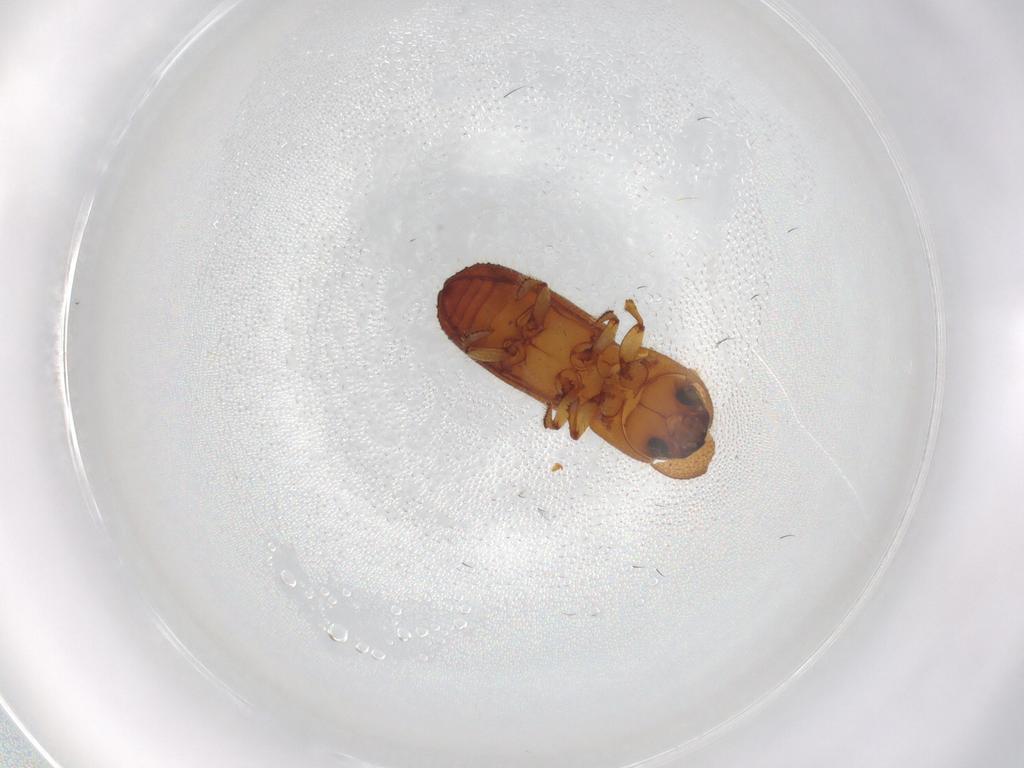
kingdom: Animalia
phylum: Arthropoda
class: Insecta
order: Coleoptera
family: Curculionidae
